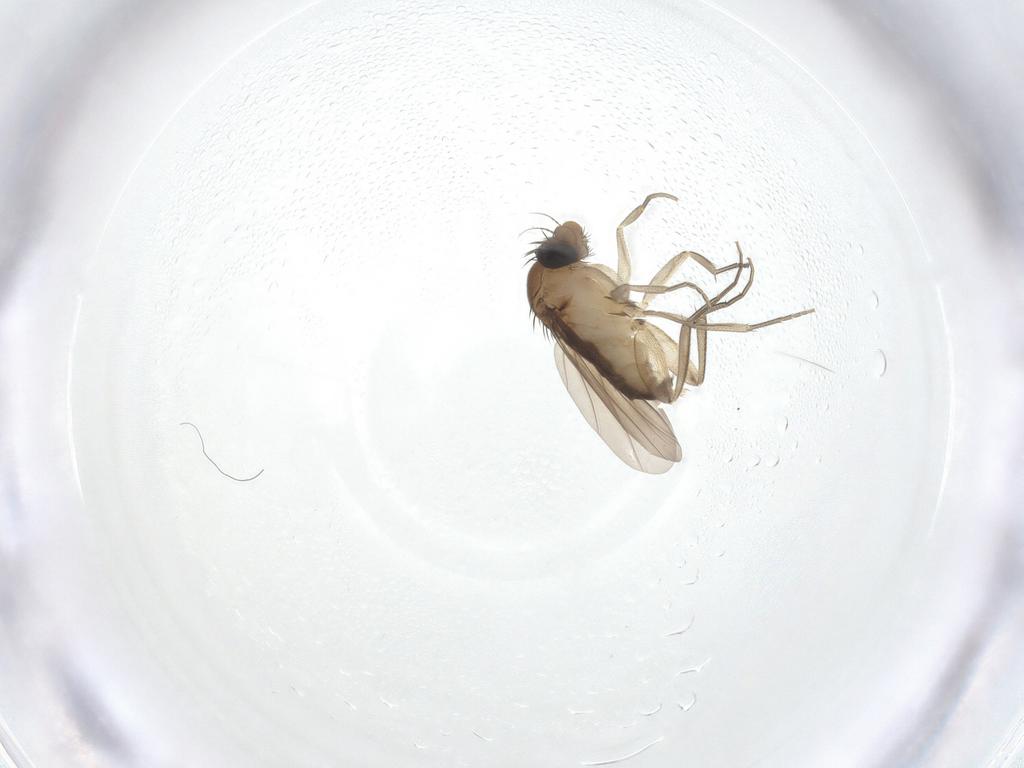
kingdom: Animalia
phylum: Arthropoda
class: Insecta
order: Diptera
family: Phoridae
